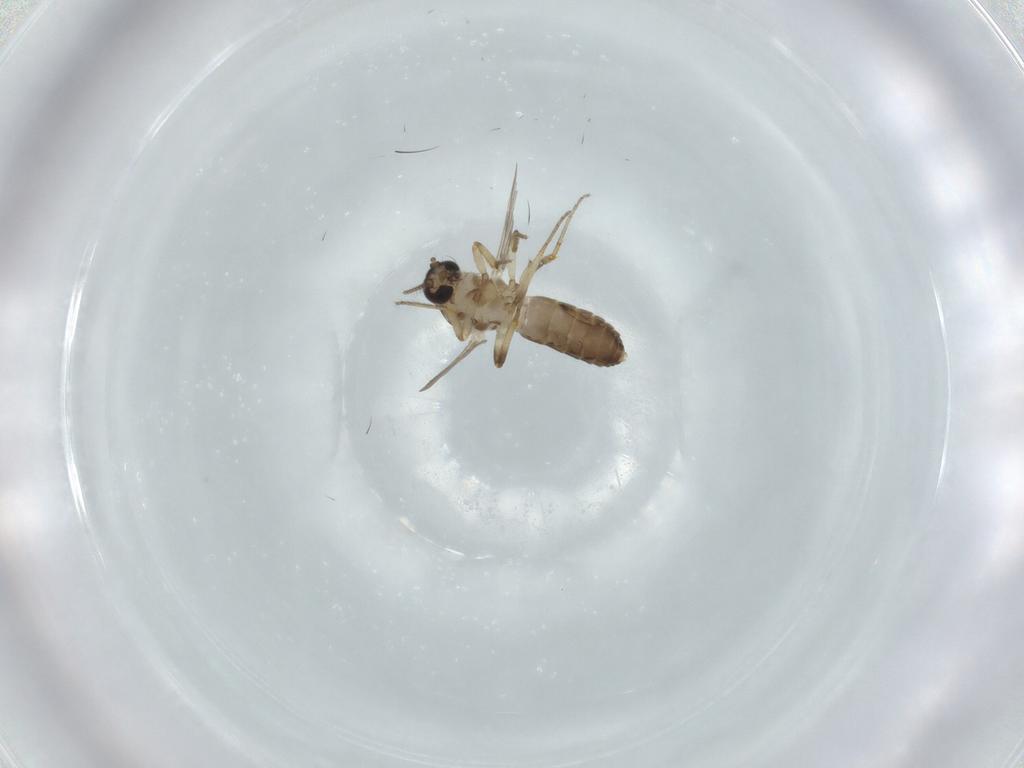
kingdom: Animalia
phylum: Arthropoda
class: Insecta
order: Diptera
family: Ceratopogonidae
